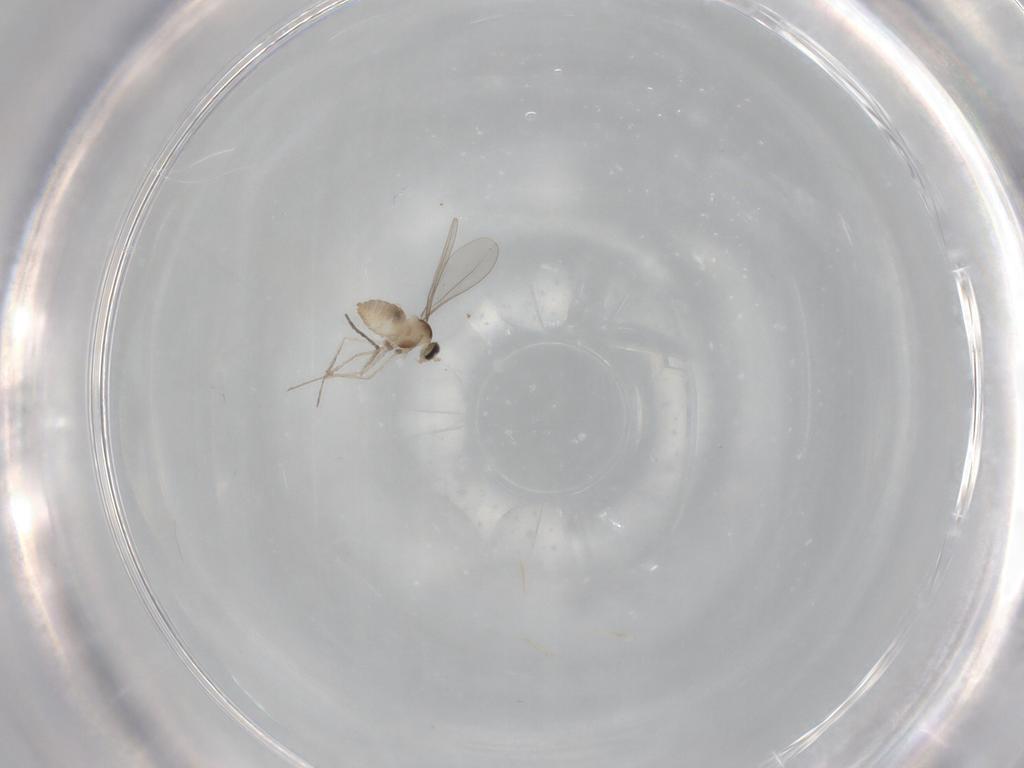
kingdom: Animalia
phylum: Arthropoda
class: Insecta
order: Diptera
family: Cecidomyiidae
